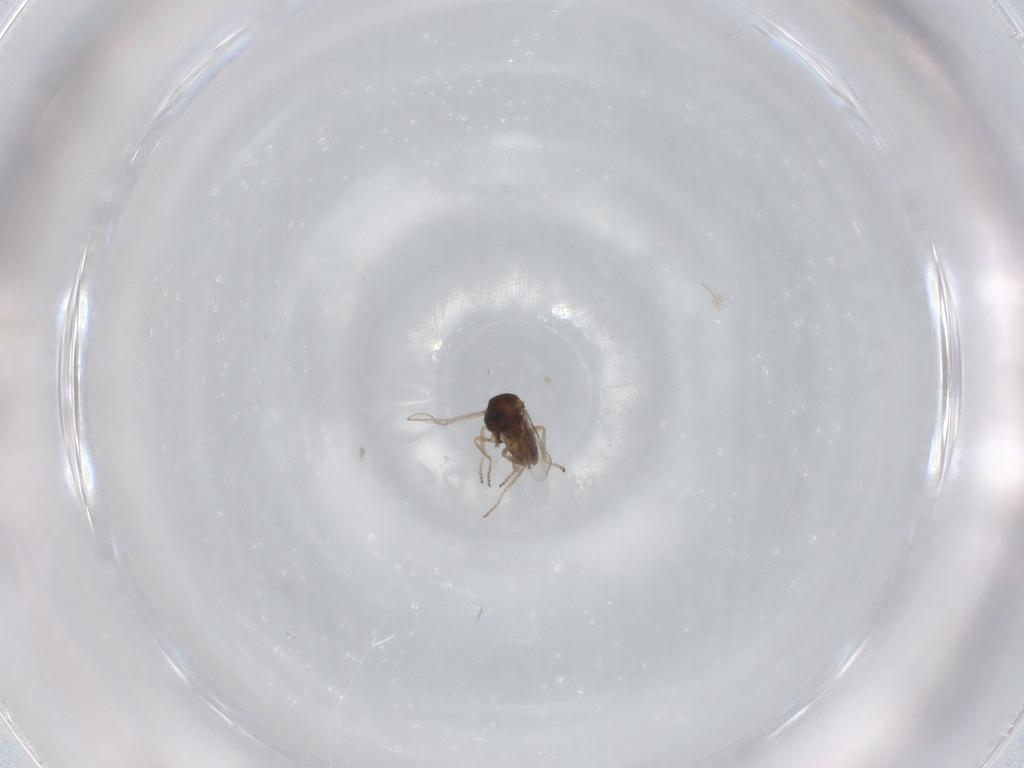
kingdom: Animalia
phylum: Arthropoda
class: Insecta
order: Diptera
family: Ceratopogonidae
